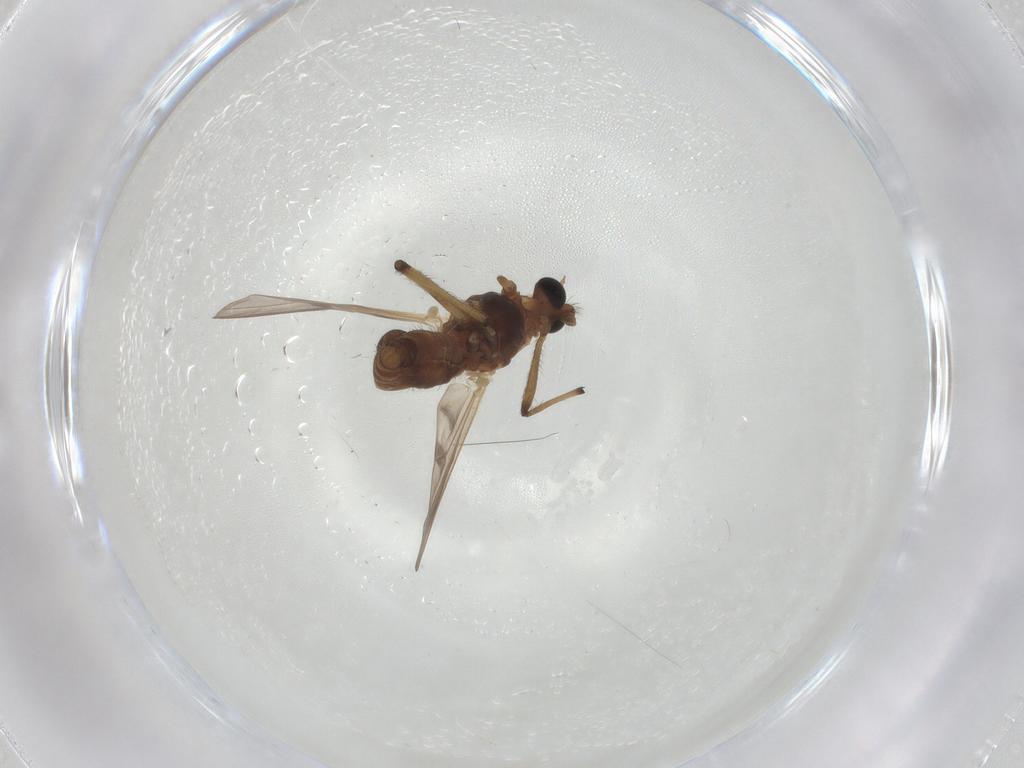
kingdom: Animalia
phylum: Arthropoda
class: Insecta
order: Diptera
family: Chironomidae
